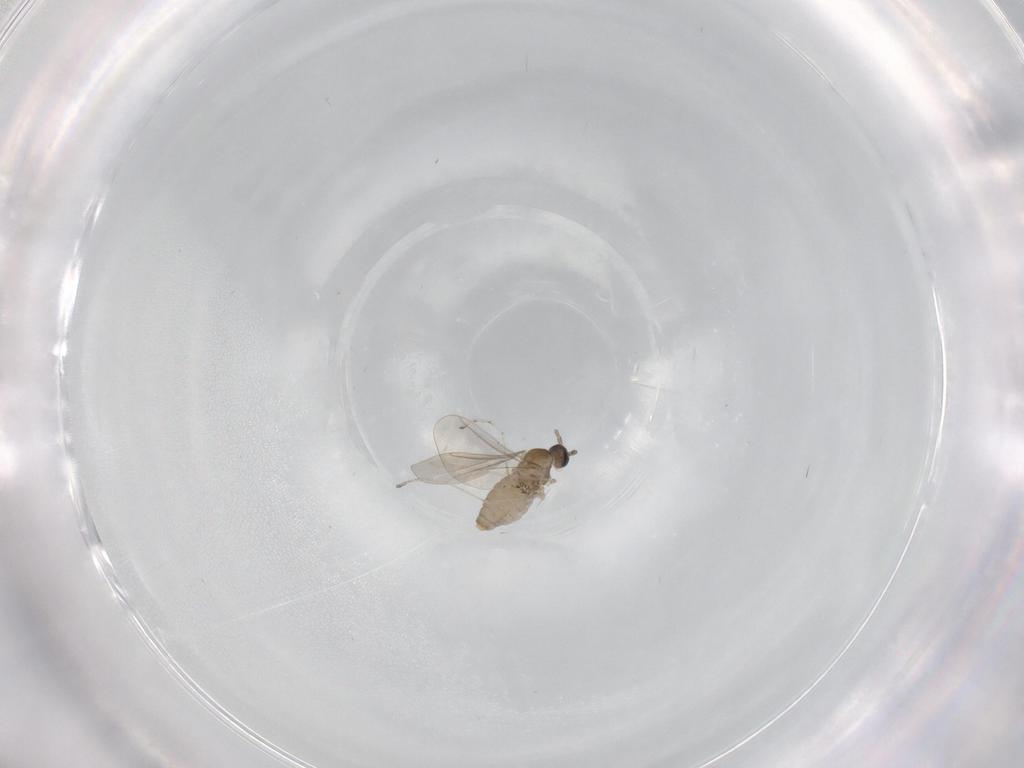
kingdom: Animalia
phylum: Arthropoda
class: Insecta
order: Diptera
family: Cecidomyiidae
